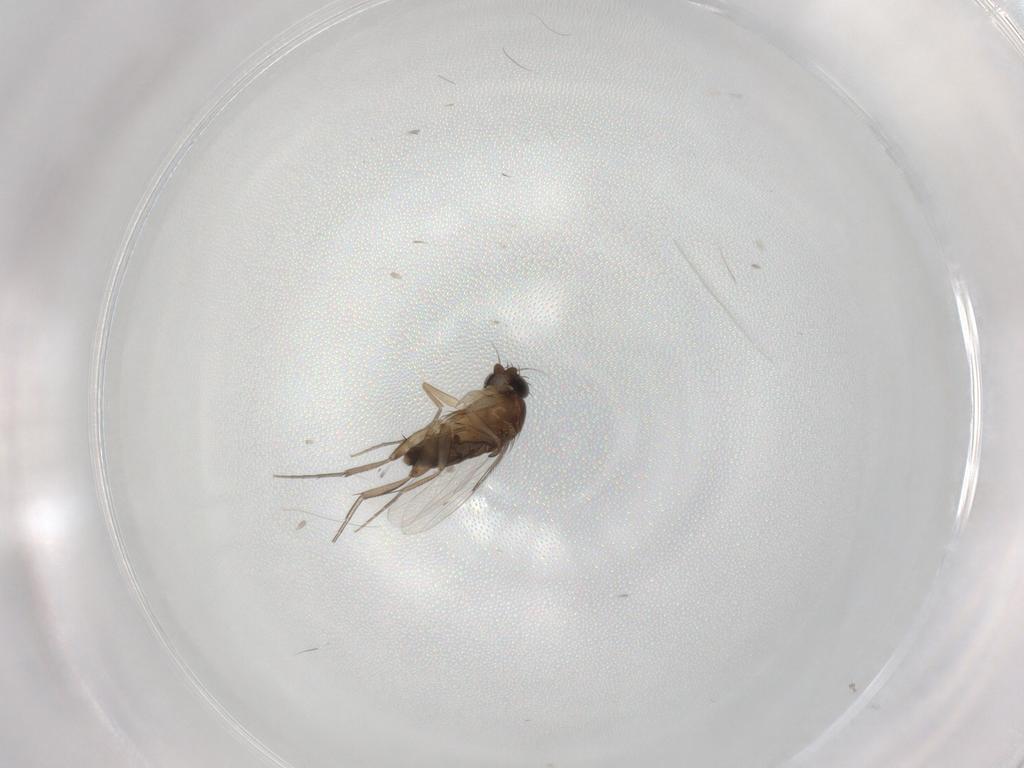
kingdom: Animalia
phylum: Arthropoda
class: Insecta
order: Diptera
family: Phoridae
